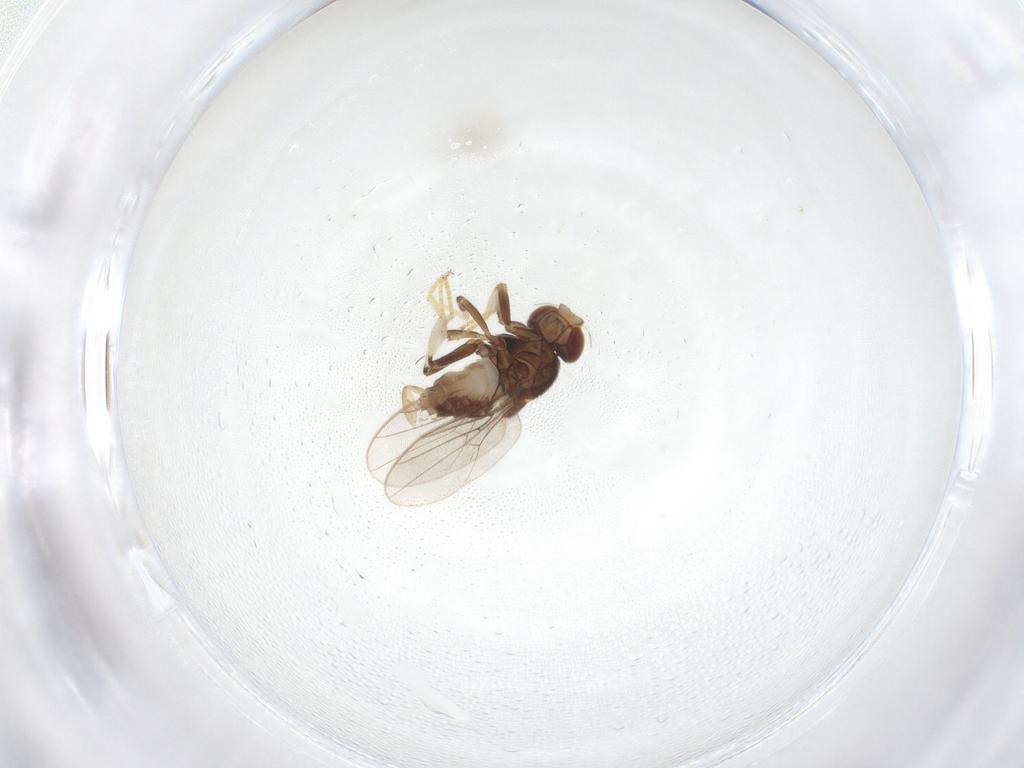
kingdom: Animalia
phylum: Arthropoda
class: Insecta
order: Diptera
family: Chloropidae
